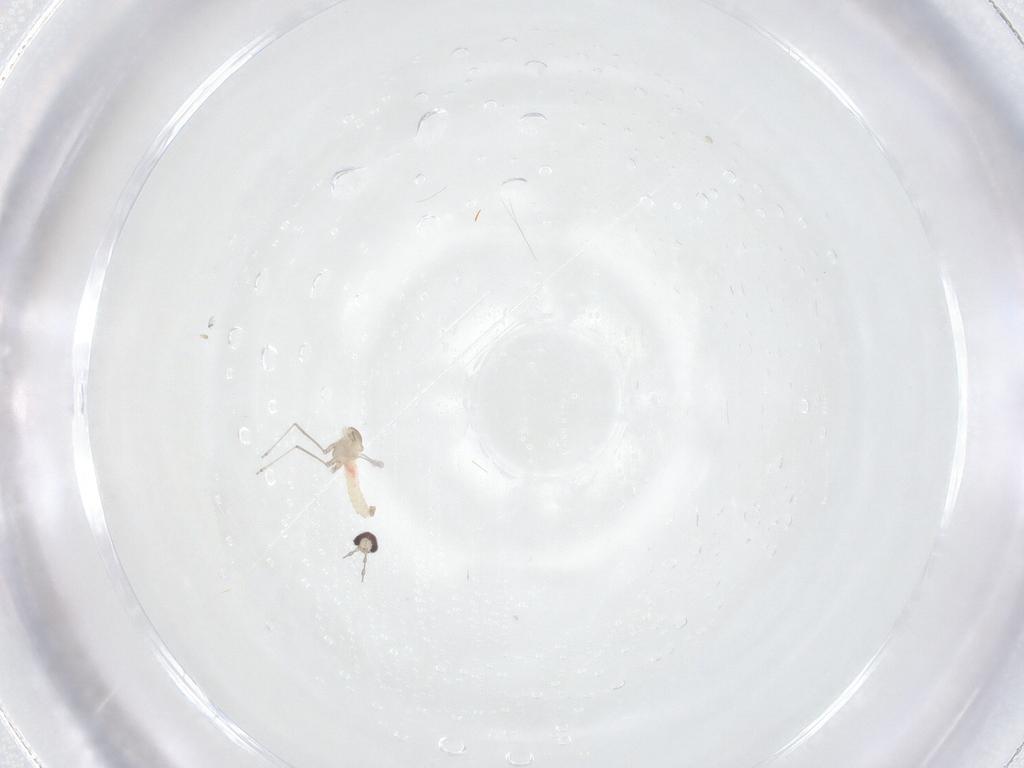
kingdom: Animalia
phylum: Arthropoda
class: Insecta
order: Diptera
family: Cecidomyiidae
